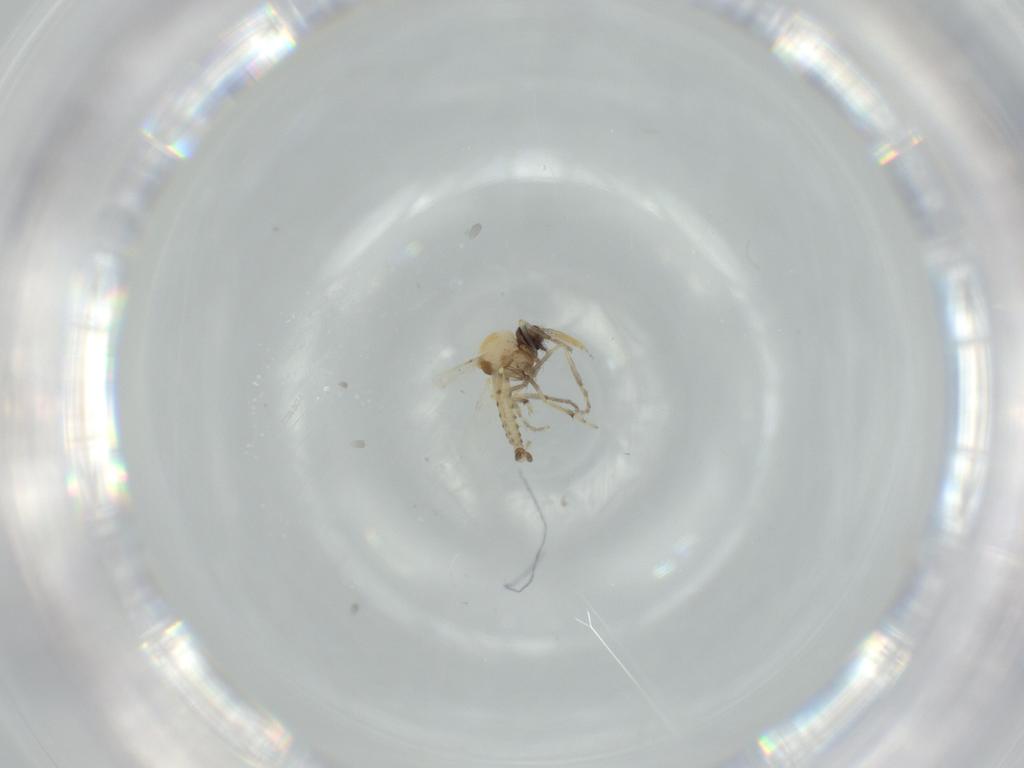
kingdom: Animalia
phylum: Arthropoda
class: Insecta
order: Diptera
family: Ceratopogonidae
